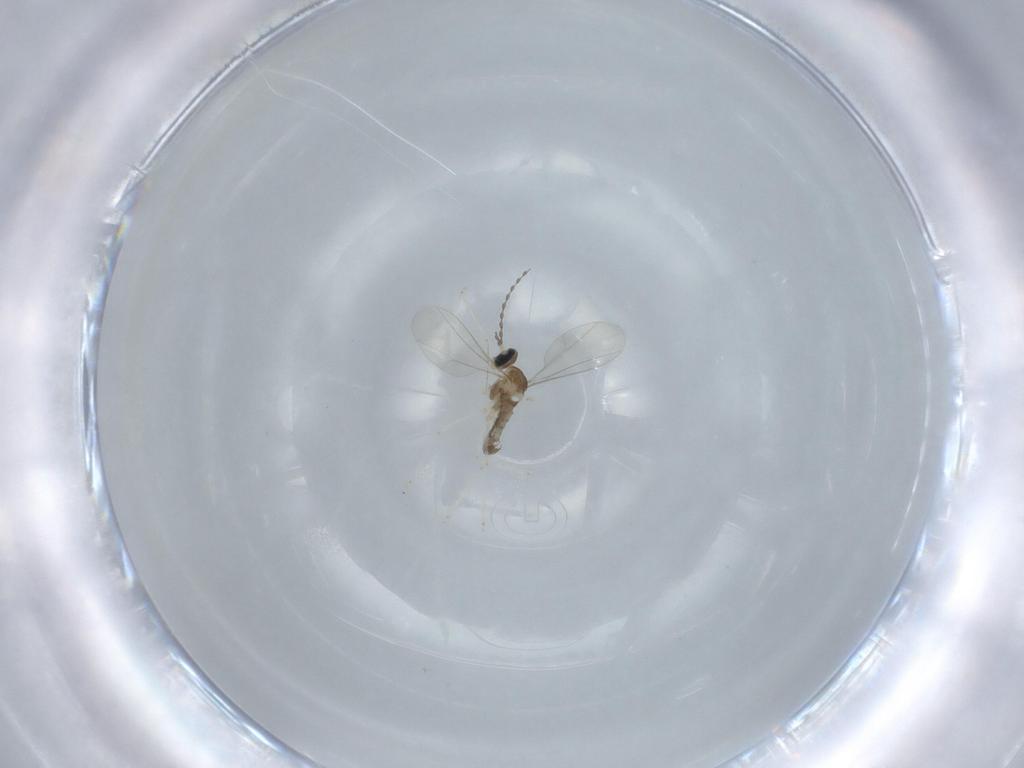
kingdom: Animalia
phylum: Arthropoda
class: Insecta
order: Diptera
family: Cecidomyiidae
